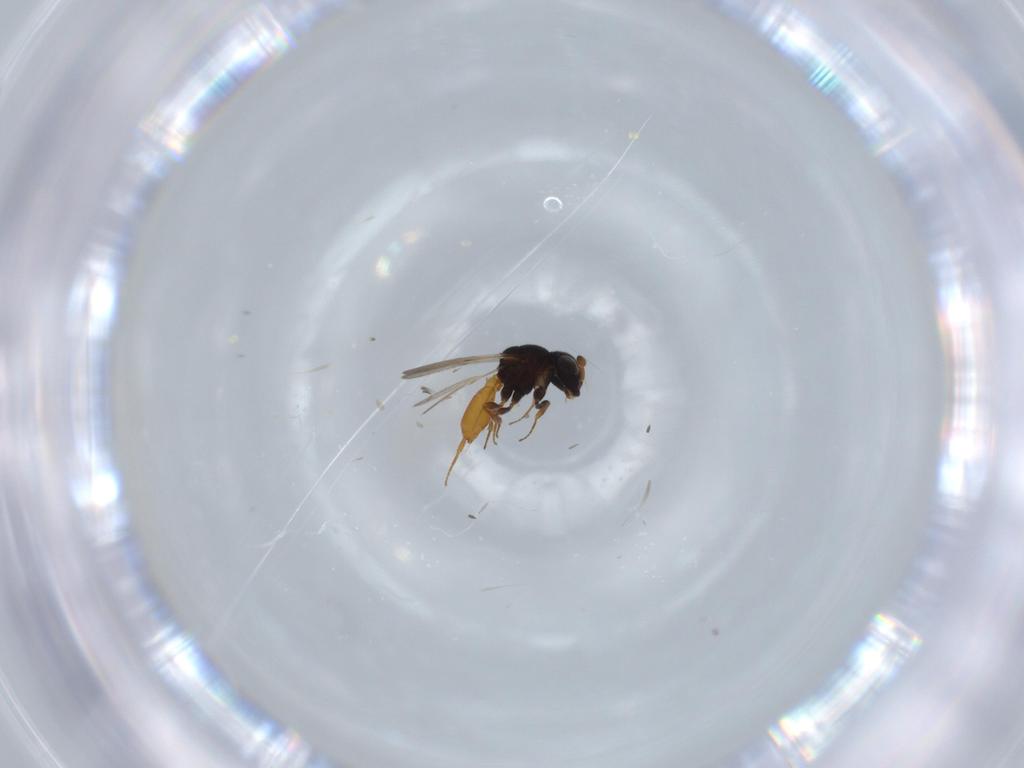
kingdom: Animalia
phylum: Arthropoda
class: Insecta
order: Hymenoptera
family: Scelionidae
